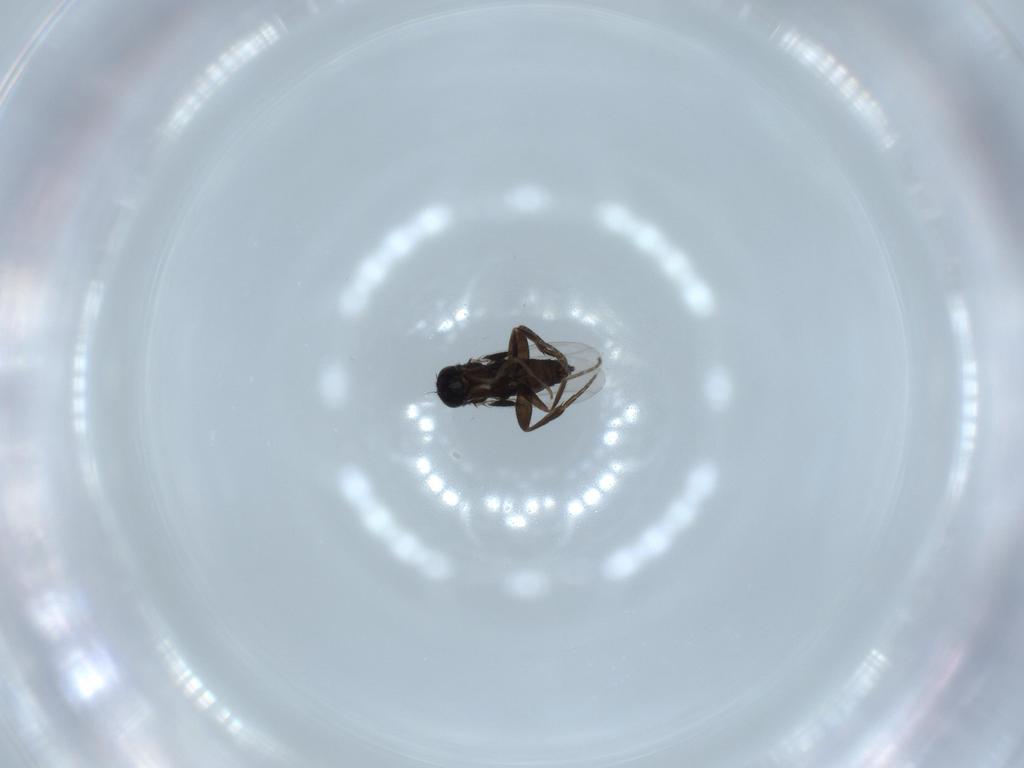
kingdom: Animalia
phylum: Arthropoda
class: Insecta
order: Diptera
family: Phoridae
